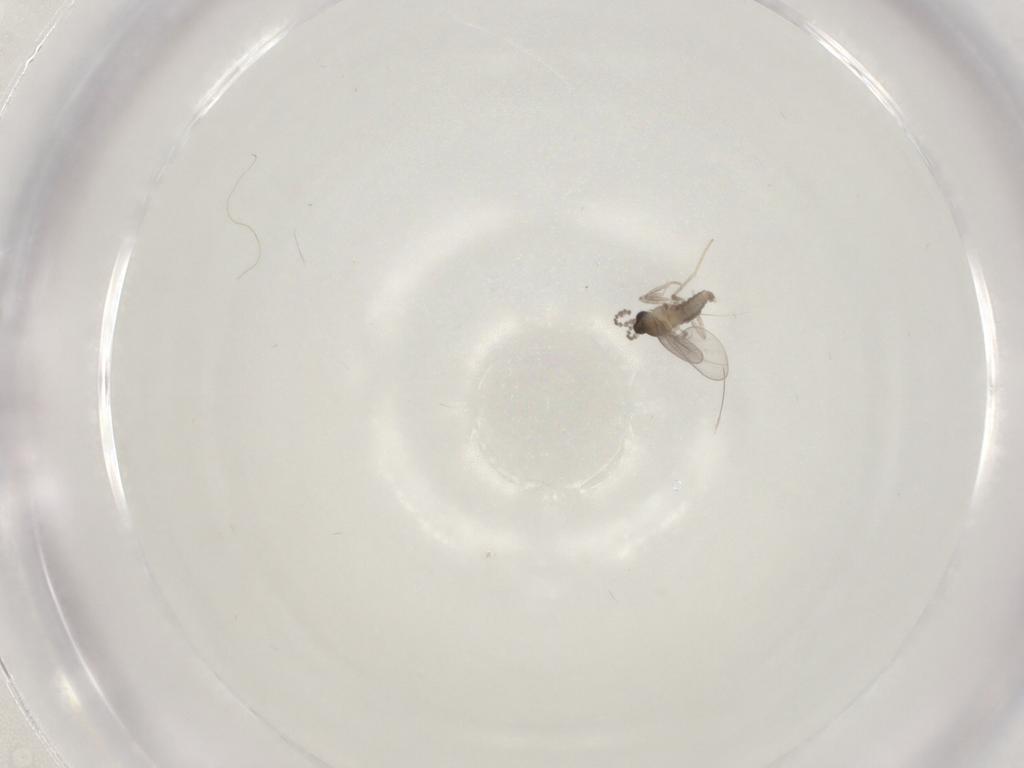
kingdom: Animalia
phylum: Arthropoda
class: Insecta
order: Diptera
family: Cecidomyiidae
